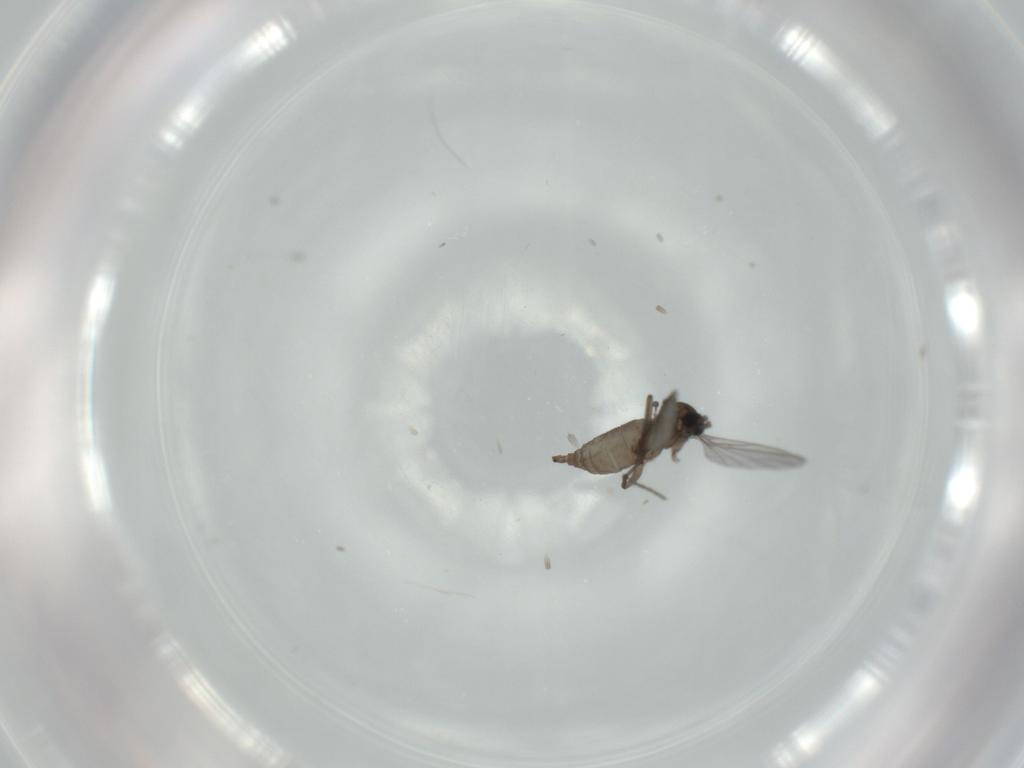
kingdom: Animalia
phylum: Arthropoda
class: Insecta
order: Diptera
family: Sciaridae
